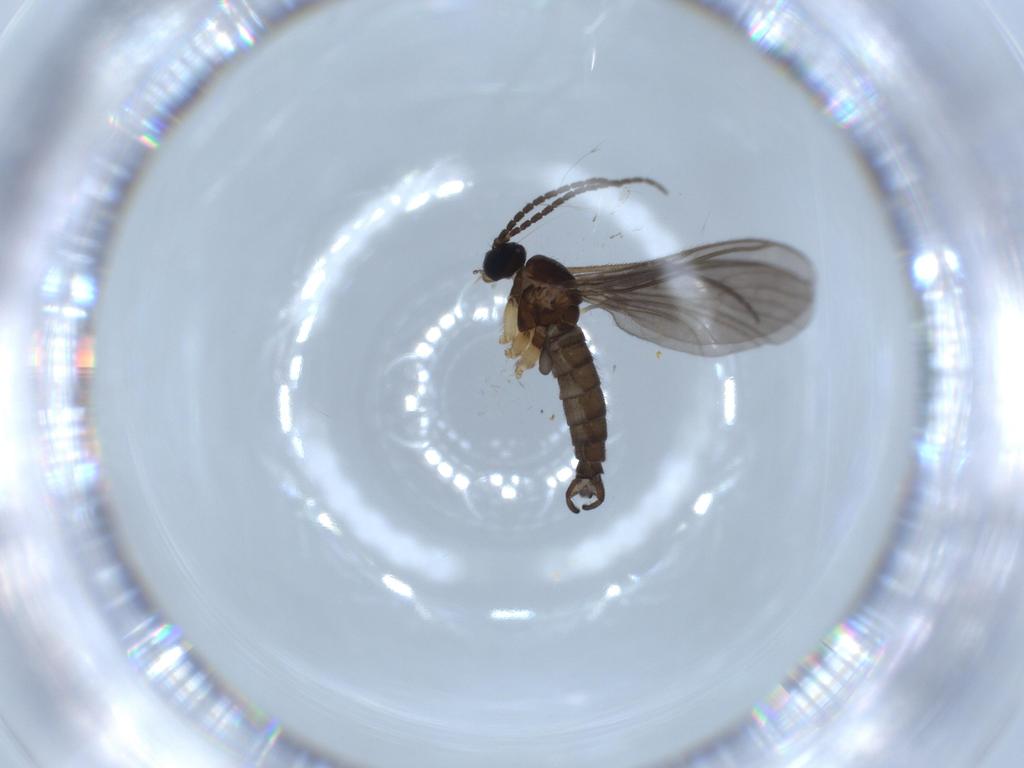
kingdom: Animalia
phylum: Arthropoda
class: Insecta
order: Diptera
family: Sciaridae
